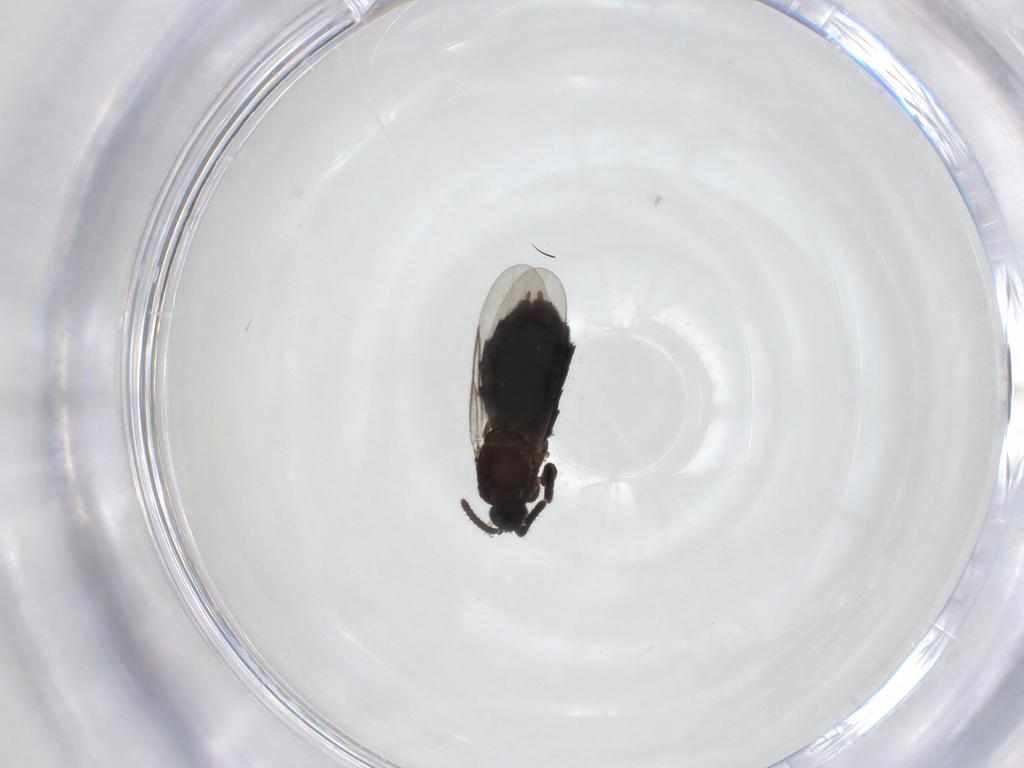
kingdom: Animalia
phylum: Arthropoda
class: Insecta
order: Diptera
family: Scatopsidae
